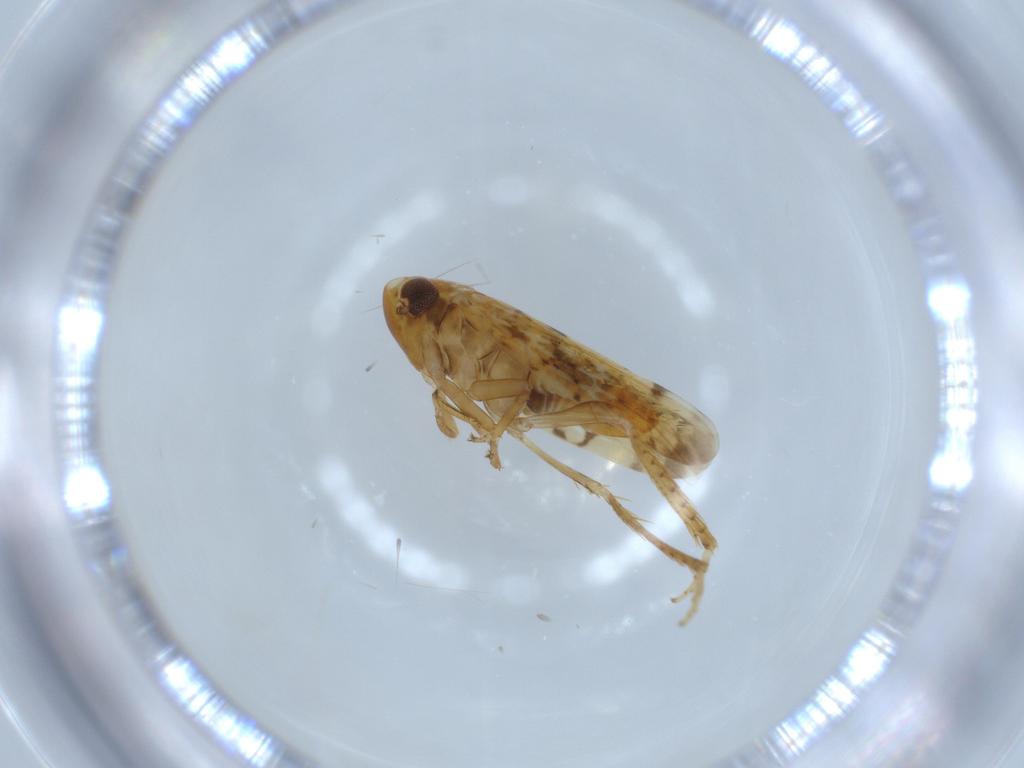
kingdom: Animalia
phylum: Arthropoda
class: Insecta
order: Hemiptera
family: Cicadellidae
